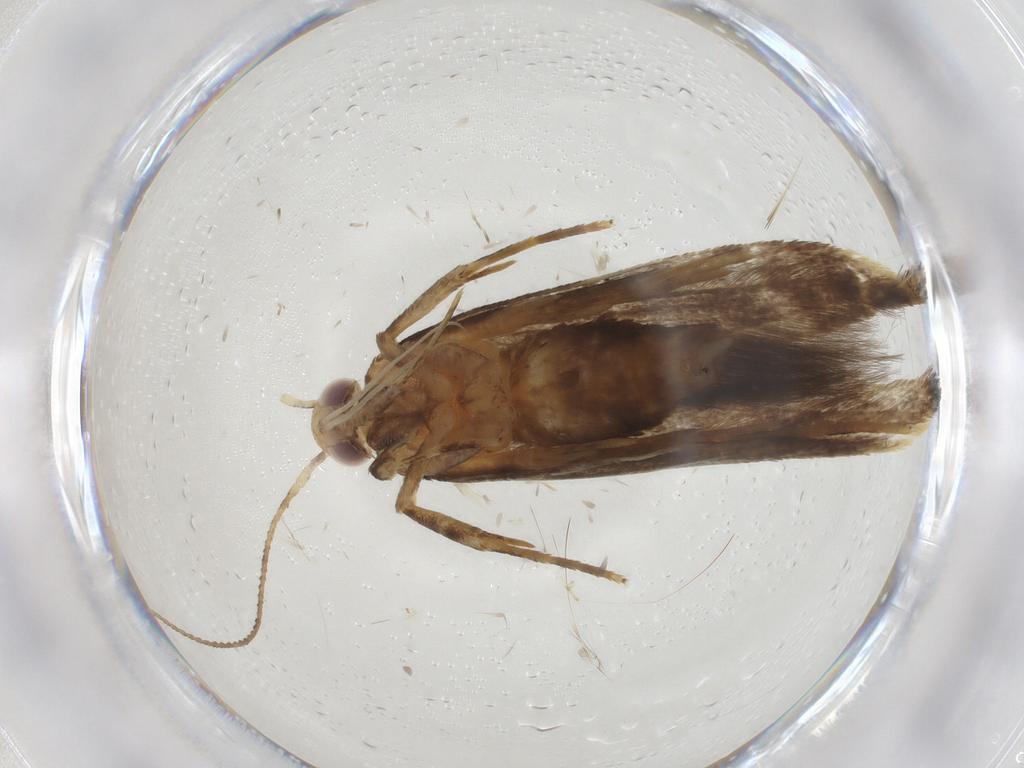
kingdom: Animalia
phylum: Arthropoda
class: Insecta
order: Lepidoptera
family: Cosmopterigidae
